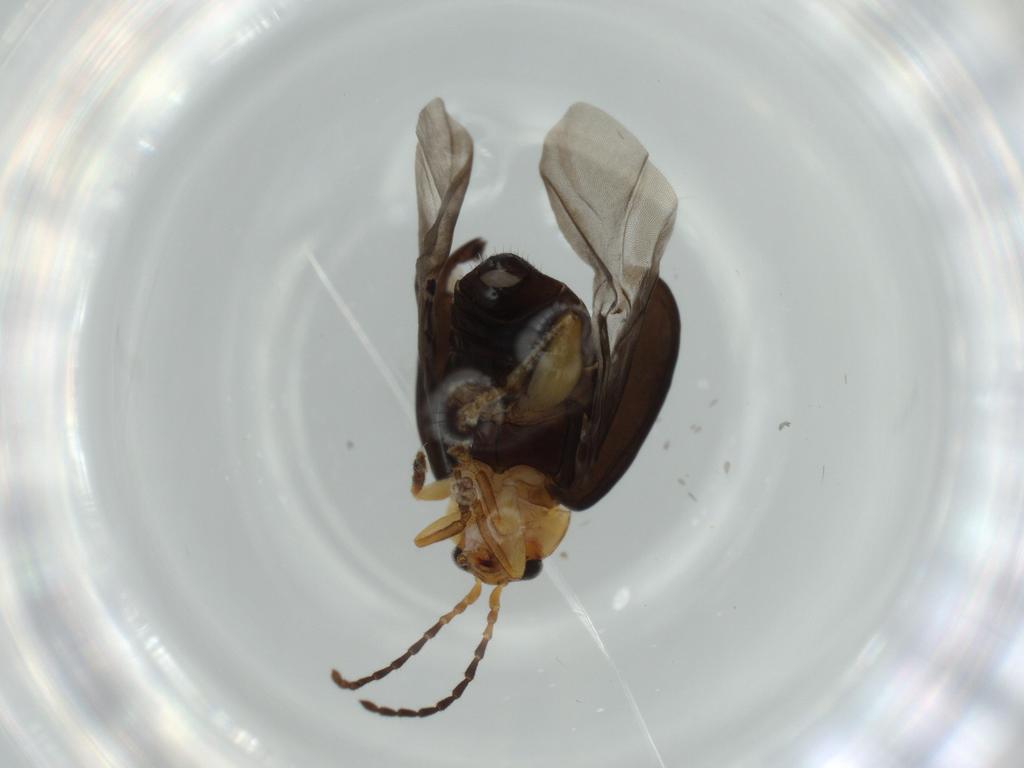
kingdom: Animalia
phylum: Arthropoda
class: Insecta
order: Coleoptera
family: Chrysomelidae
